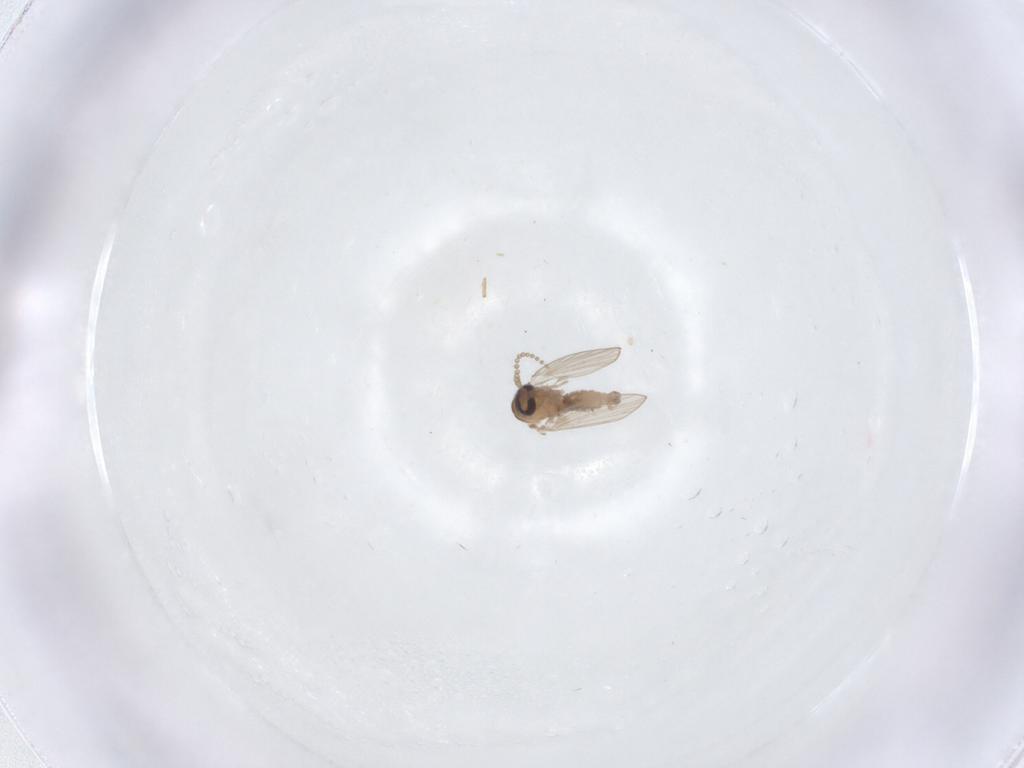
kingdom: Animalia
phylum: Arthropoda
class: Insecta
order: Diptera
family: Psychodidae
